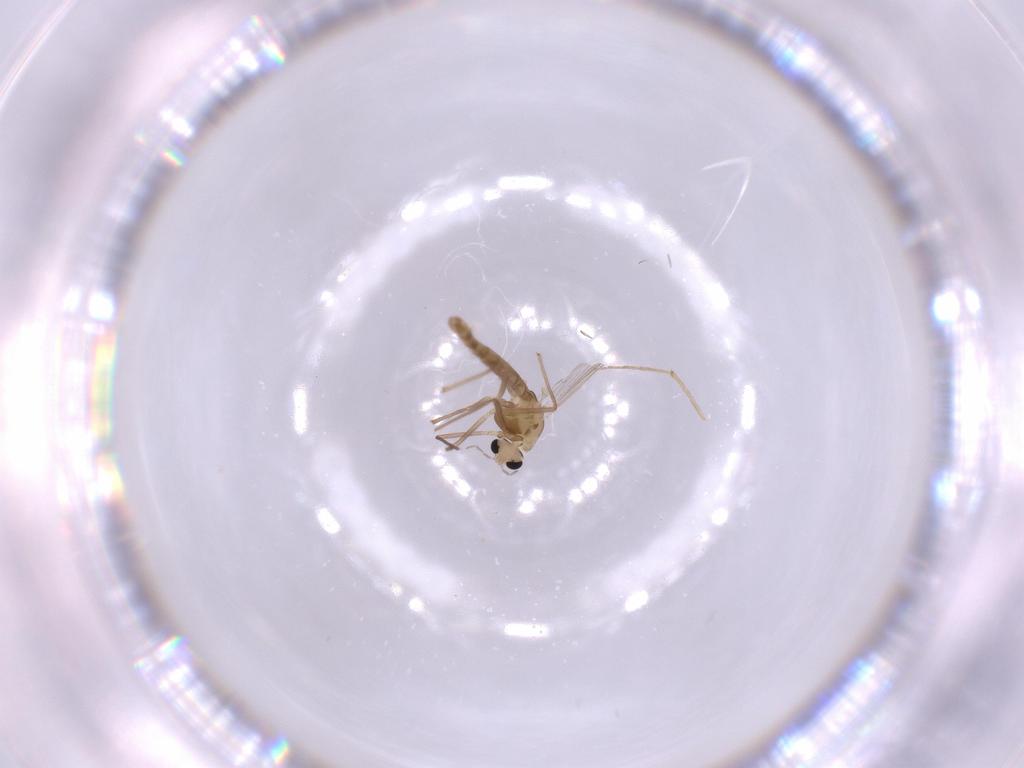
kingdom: Animalia
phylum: Arthropoda
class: Insecta
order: Diptera
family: Chironomidae
